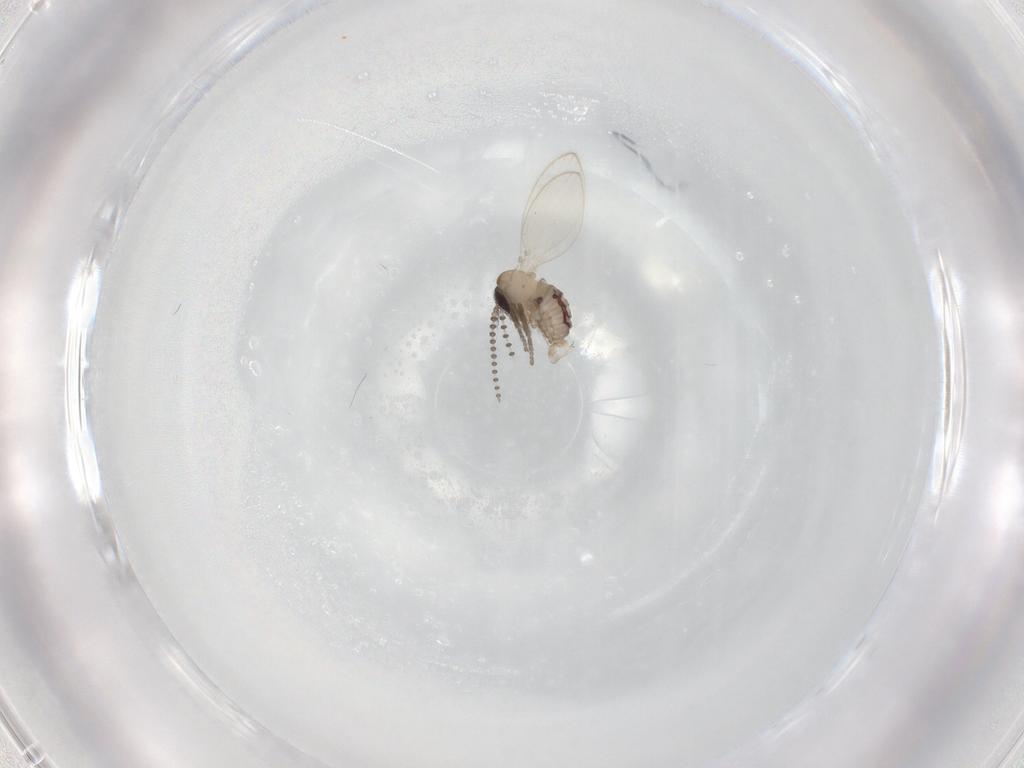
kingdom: Animalia
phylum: Arthropoda
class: Insecta
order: Diptera
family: Psychodidae
